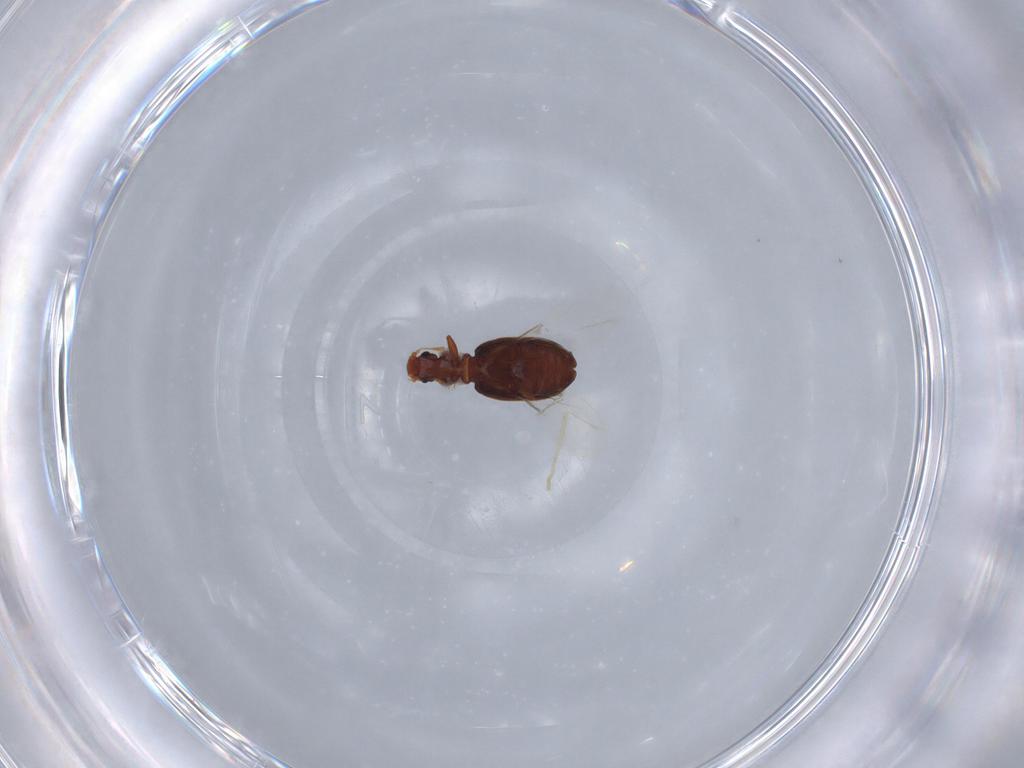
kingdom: Animalia
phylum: Arthropoda
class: Insecta
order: Coleoptera
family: Latridiidae
